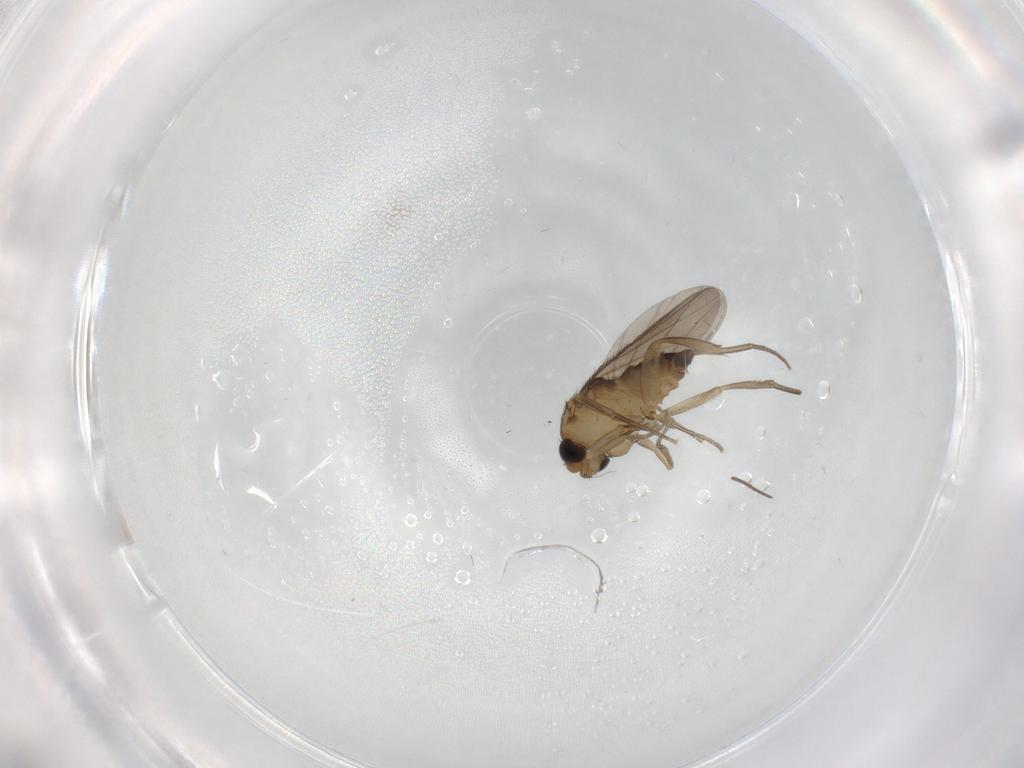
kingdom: Animalia
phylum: Arthropoda
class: Insecta
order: Diptera
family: Phoridae
